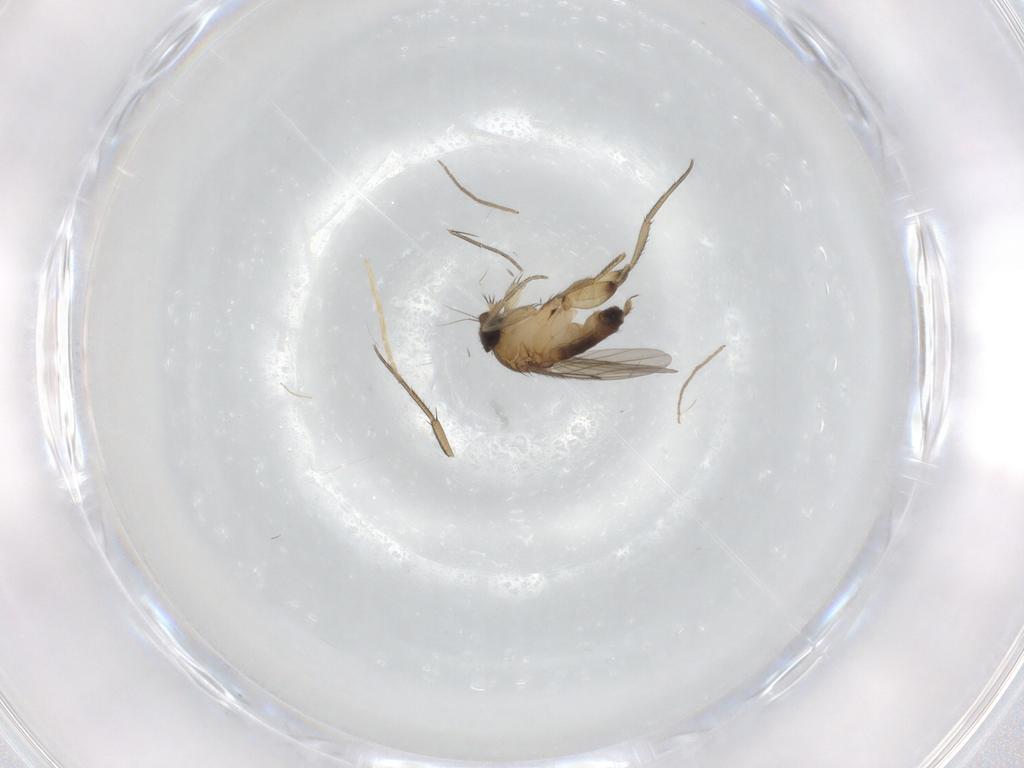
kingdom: Animalia
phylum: Arthropoda
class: Insecta
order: Diptera
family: Phoridae
